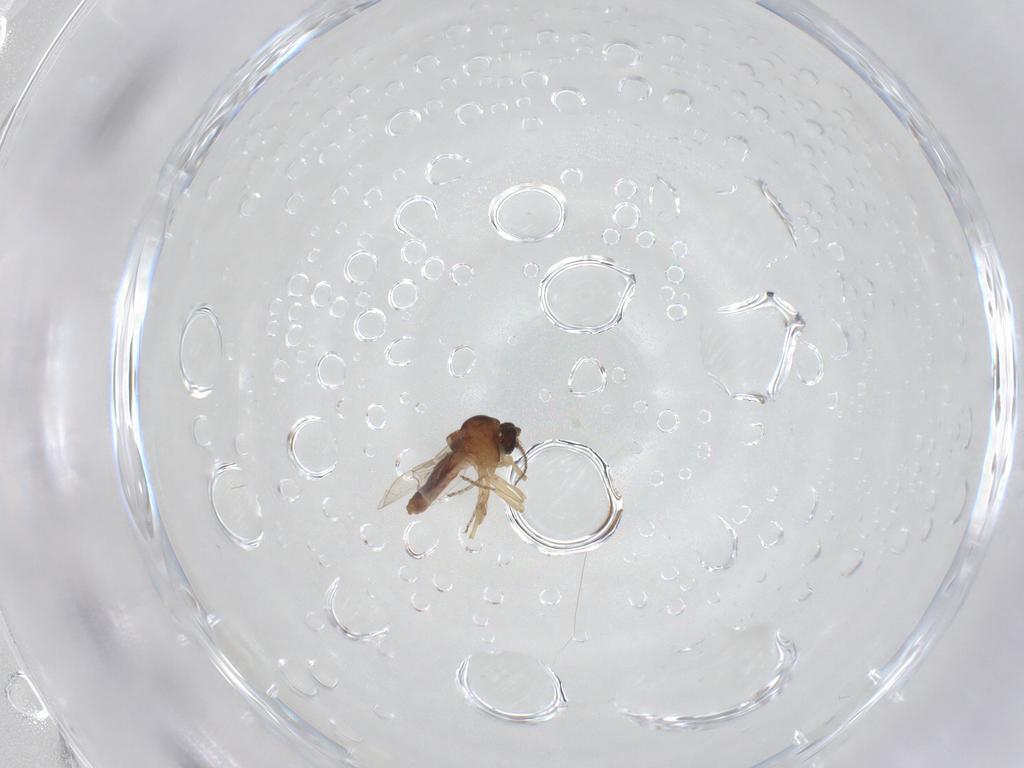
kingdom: Animalia
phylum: Arthropoda
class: Insecta
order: Diptera
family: Ceratopogonidae
